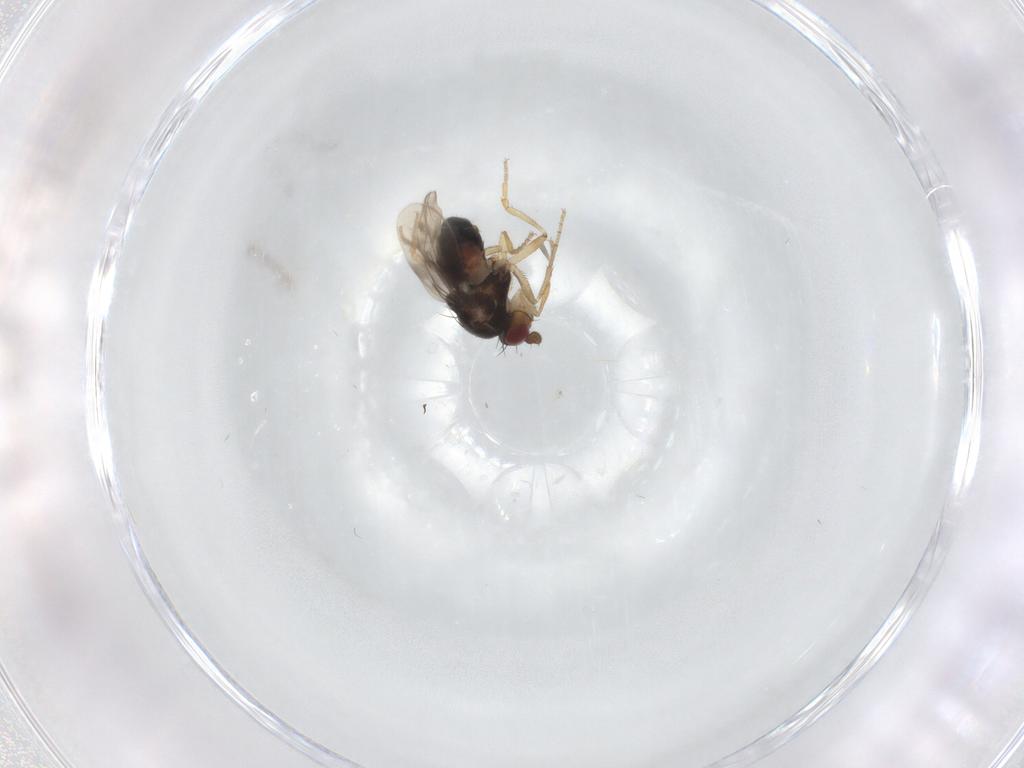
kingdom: Animalia
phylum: Arthropoda
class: Insecta
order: Diptera
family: Sphaeroceridae
